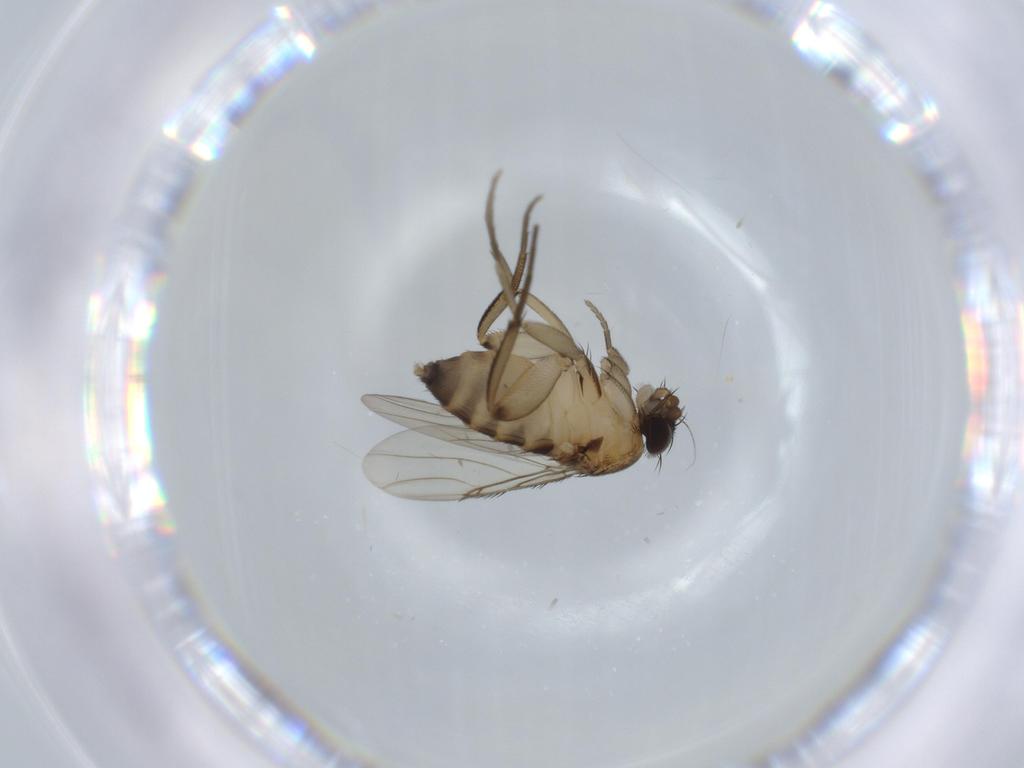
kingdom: Animalia
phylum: Arthropoda
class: Insecta
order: Diptera
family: Phoridae
